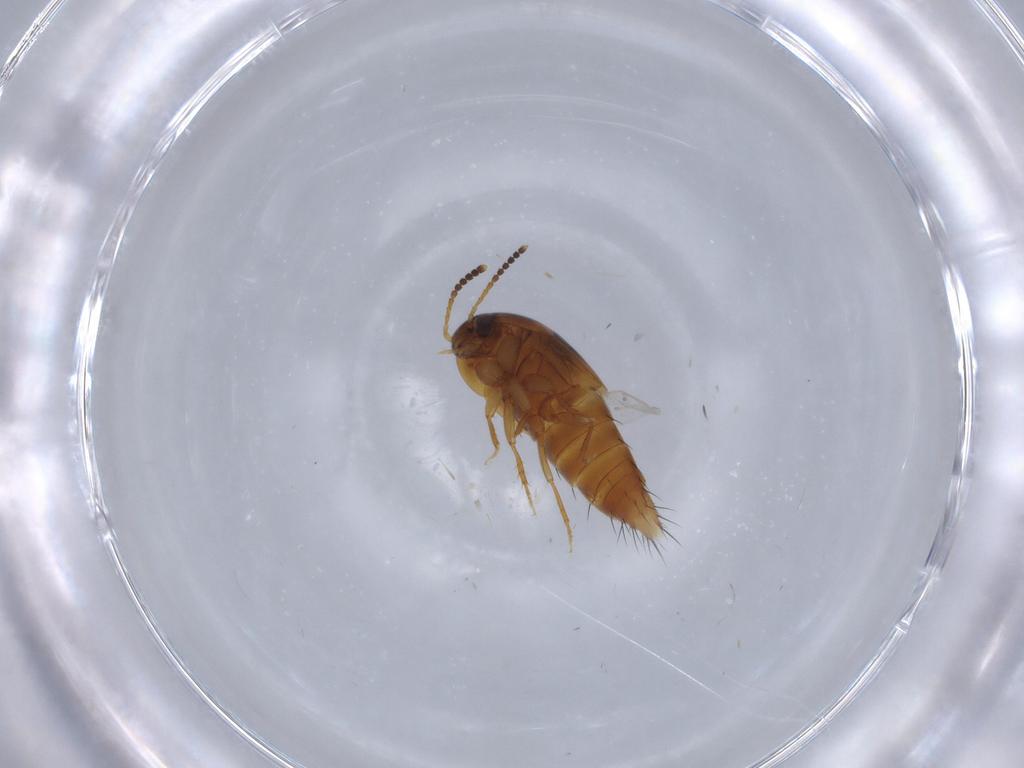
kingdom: Animalia
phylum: Arthropoda
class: Insecta
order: Coleoptera
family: Staphylinidae
